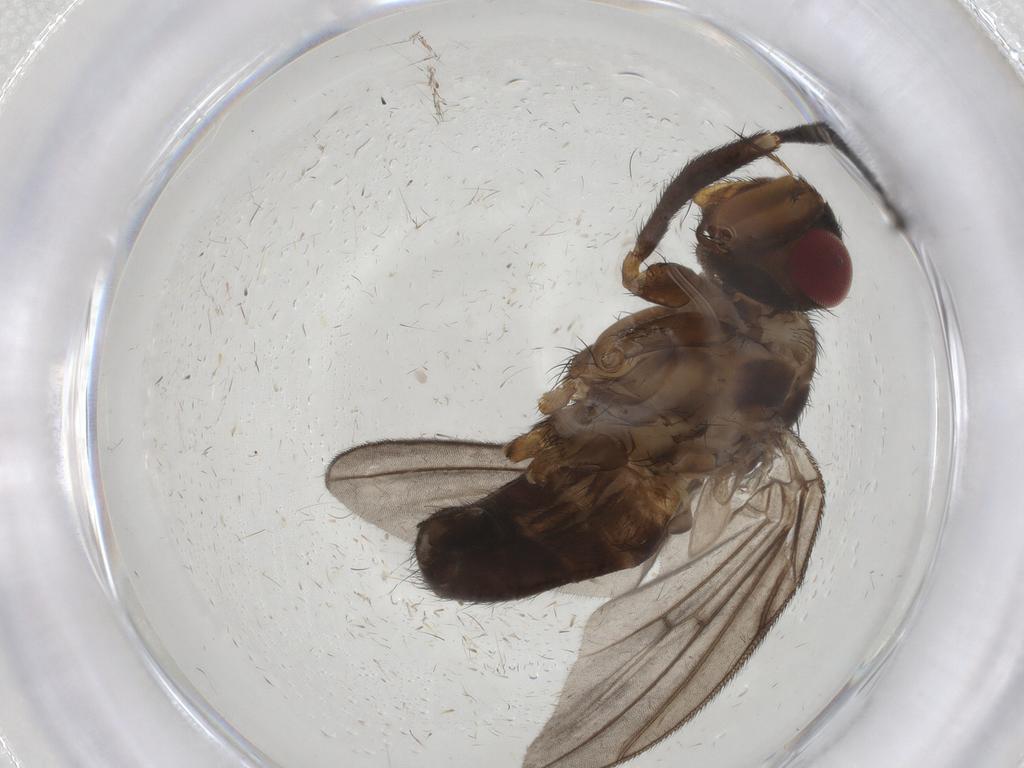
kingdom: Animalia
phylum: Arthropoda
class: Insecta
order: Diptera
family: Calliphoridae
